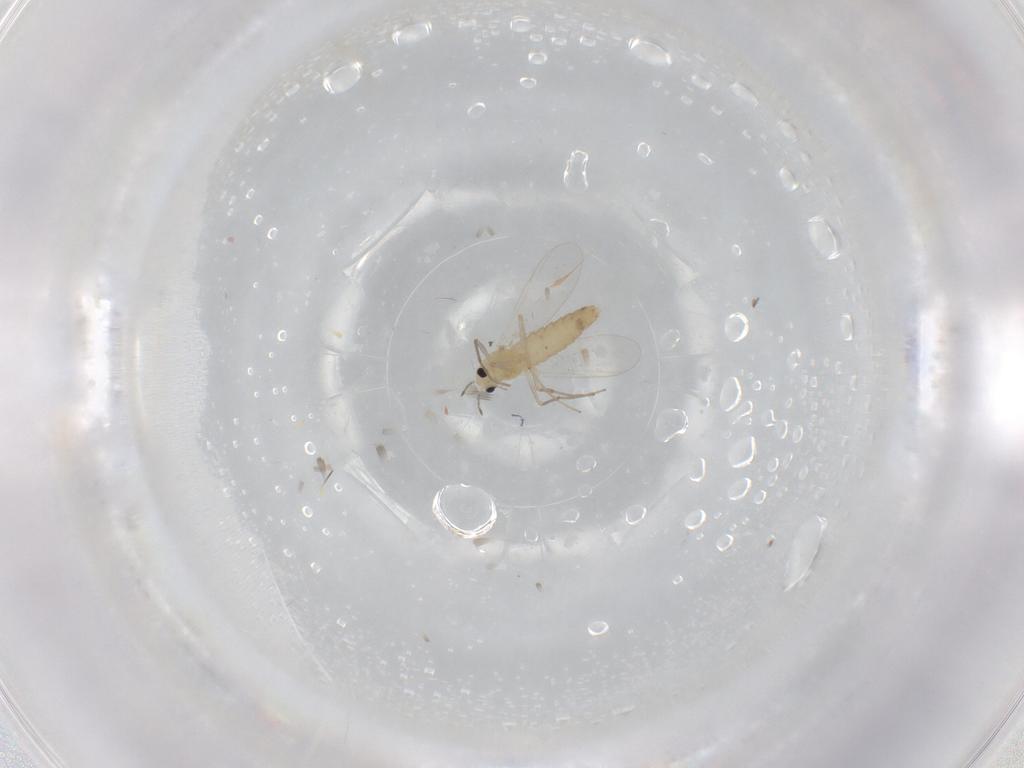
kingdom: Animalia
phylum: Arthropoda
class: Insecta
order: Diptera
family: Chironomidae
